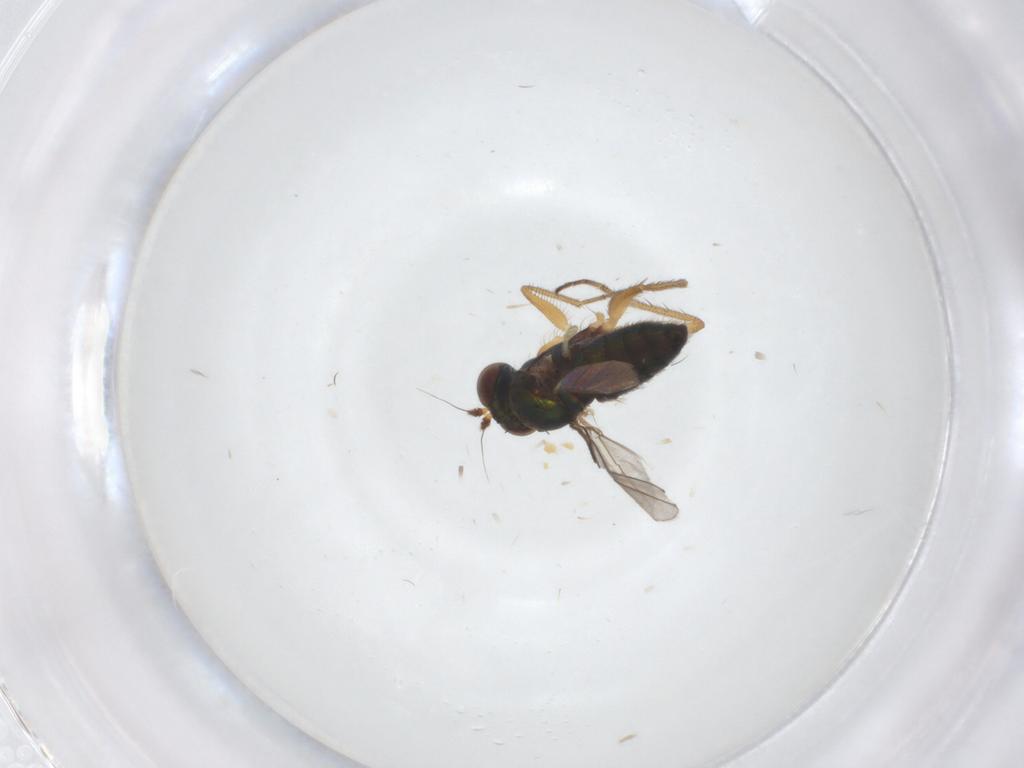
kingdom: Animalia
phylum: Arthropoda
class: Insecta
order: Diptera
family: Dolichopodidae
